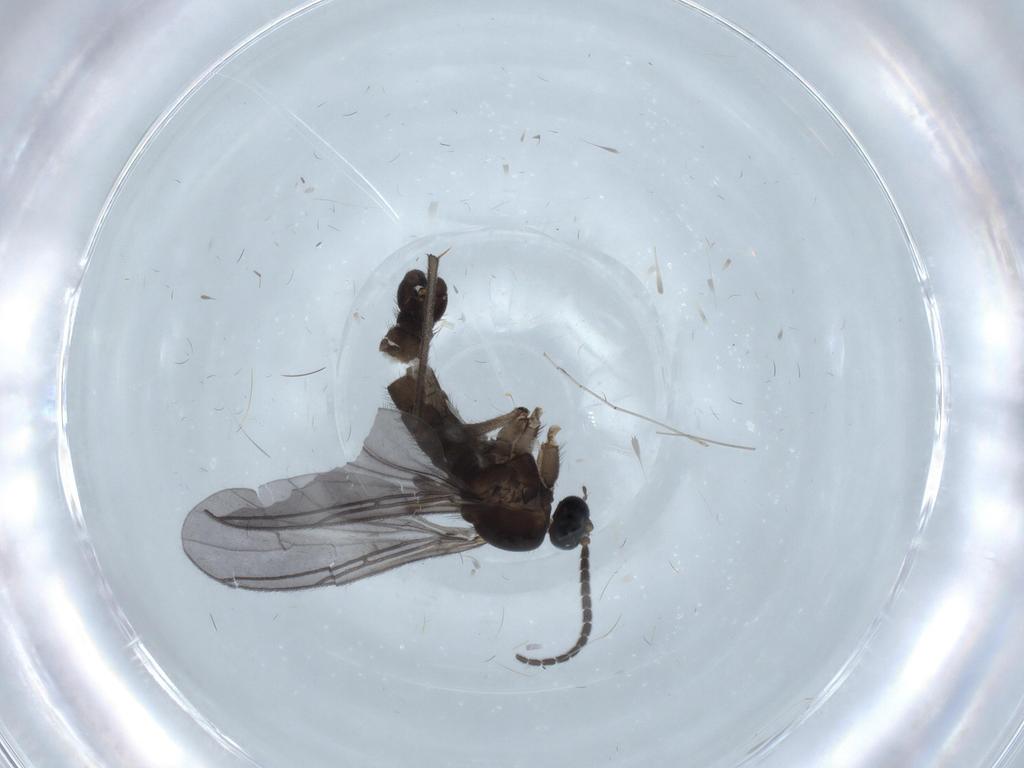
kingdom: Animalia
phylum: Arthropoda
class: Insecta
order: Diptera
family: Sciaridae
